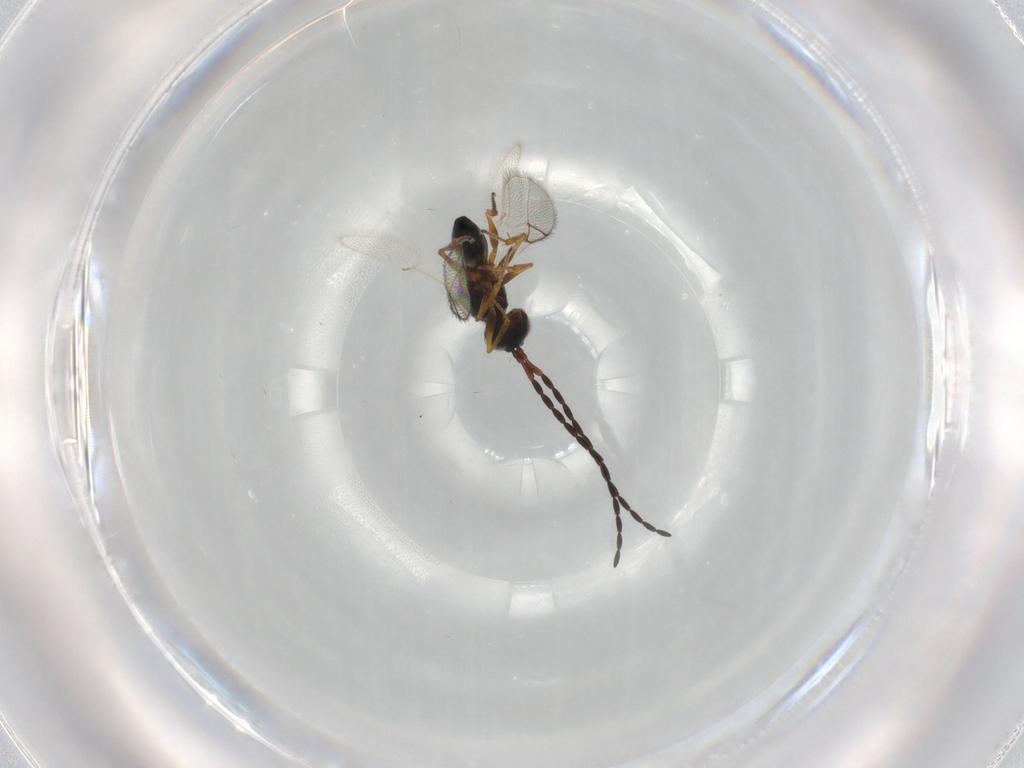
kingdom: Animalia
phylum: Arthropoda
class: Insecta
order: Hymenoptera
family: Figitidae
